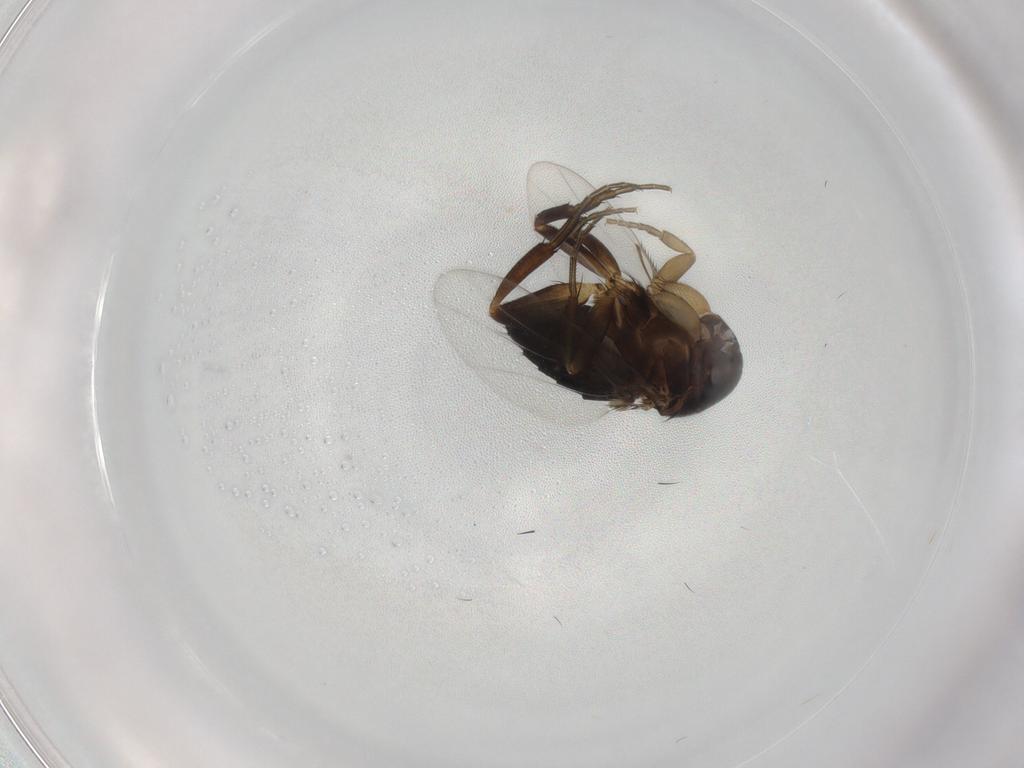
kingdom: Animalia
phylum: Arthropoda
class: Insecta
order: Diptera
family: Phoridae
